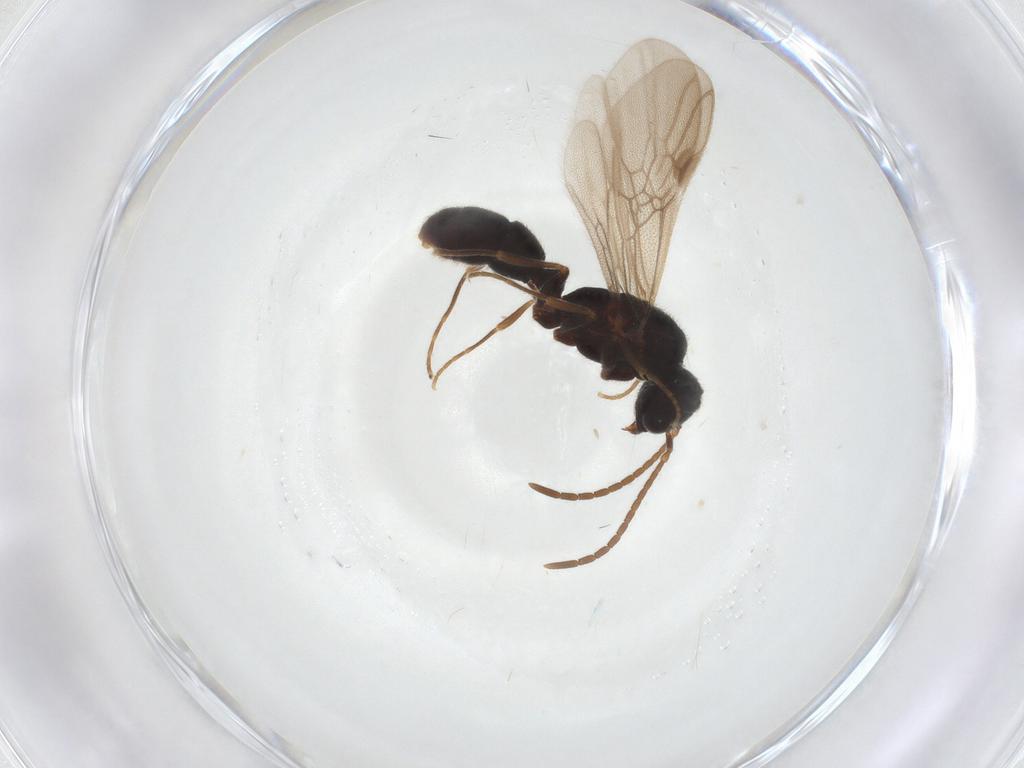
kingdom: Animalia
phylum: Arthropoda
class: Insecta
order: Hymenoptera
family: Formicidae
